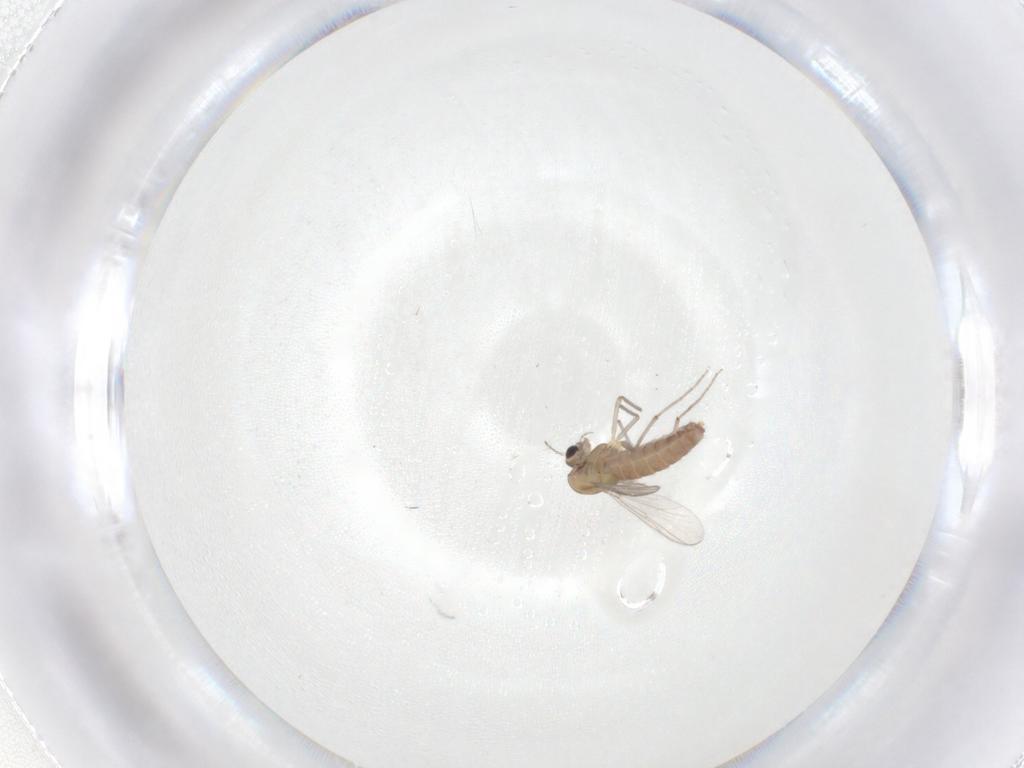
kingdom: Animalia
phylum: Arthropoda
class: Insecta
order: Diptera
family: Chironomidae
